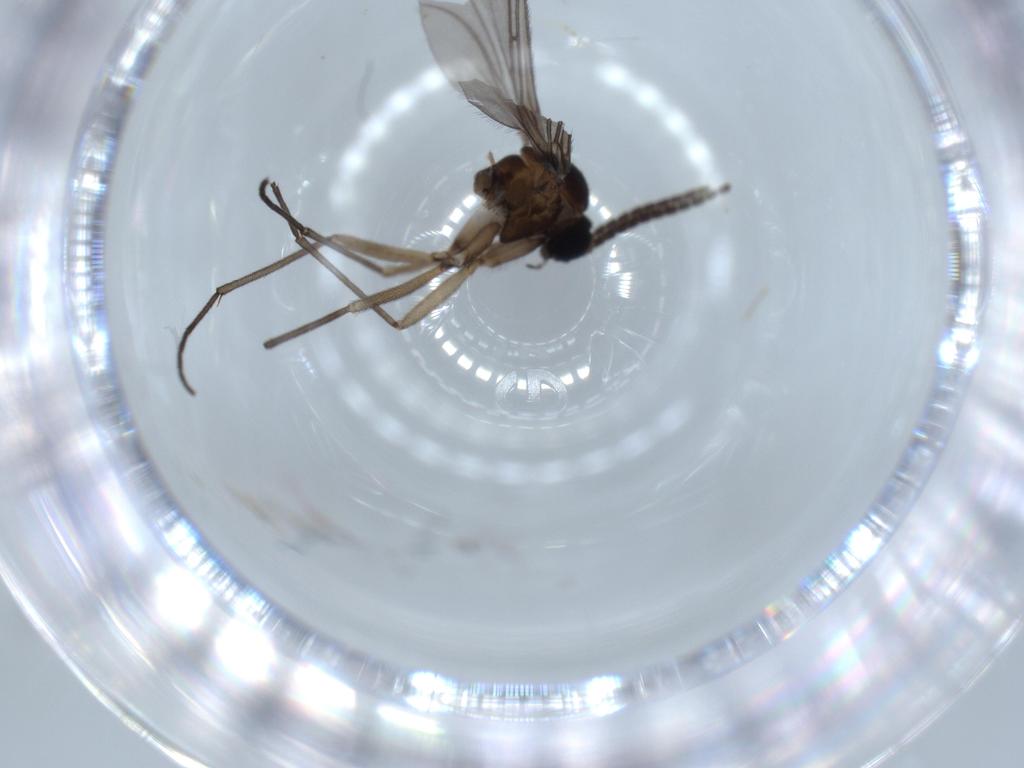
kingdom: Animalia
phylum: Arthropoda
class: Insecta
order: Diptera
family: Sciaridae
